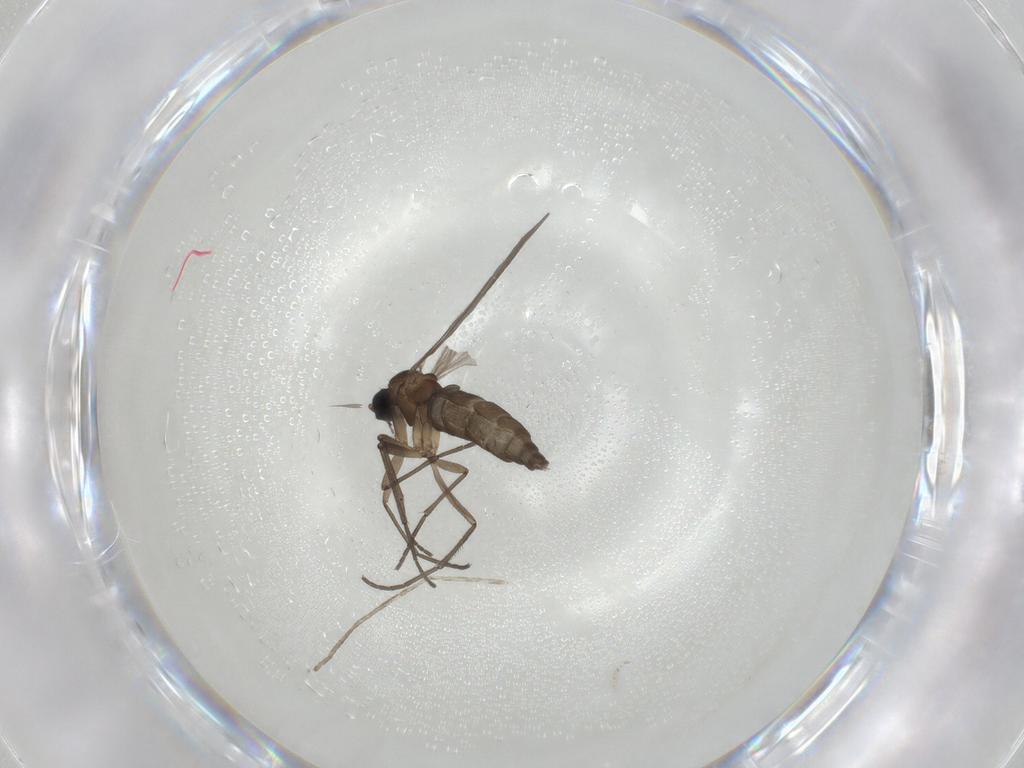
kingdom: Animalia
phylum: Arthropoda
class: Insecta
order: Diptera
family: Sciaridae
